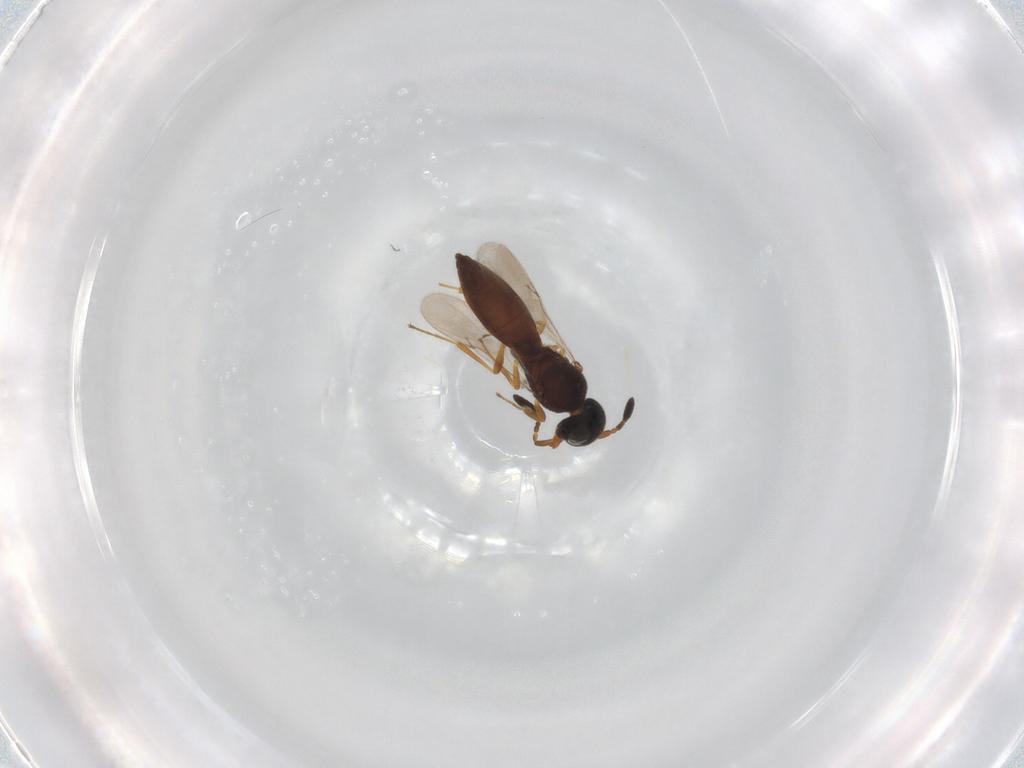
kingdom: Animalia
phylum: Arthropoda
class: Insecta
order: Hymenoptera
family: Scelionidae
